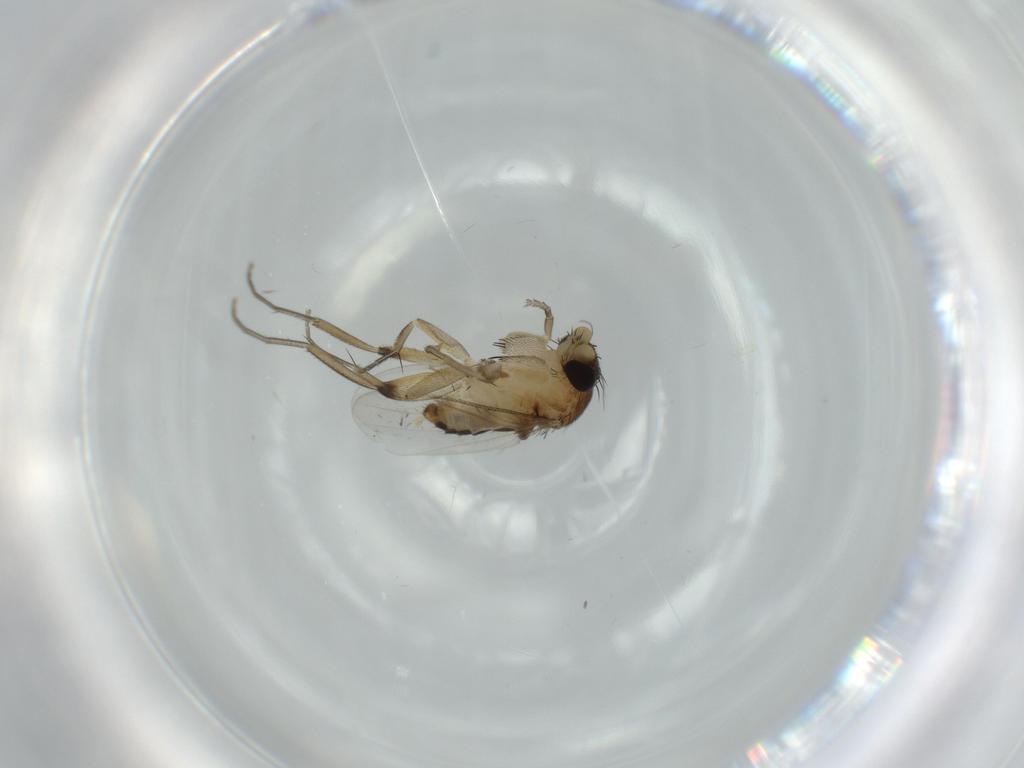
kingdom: Animalia
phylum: Arthropoda
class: Insecta
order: Diptera
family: Phoridae
